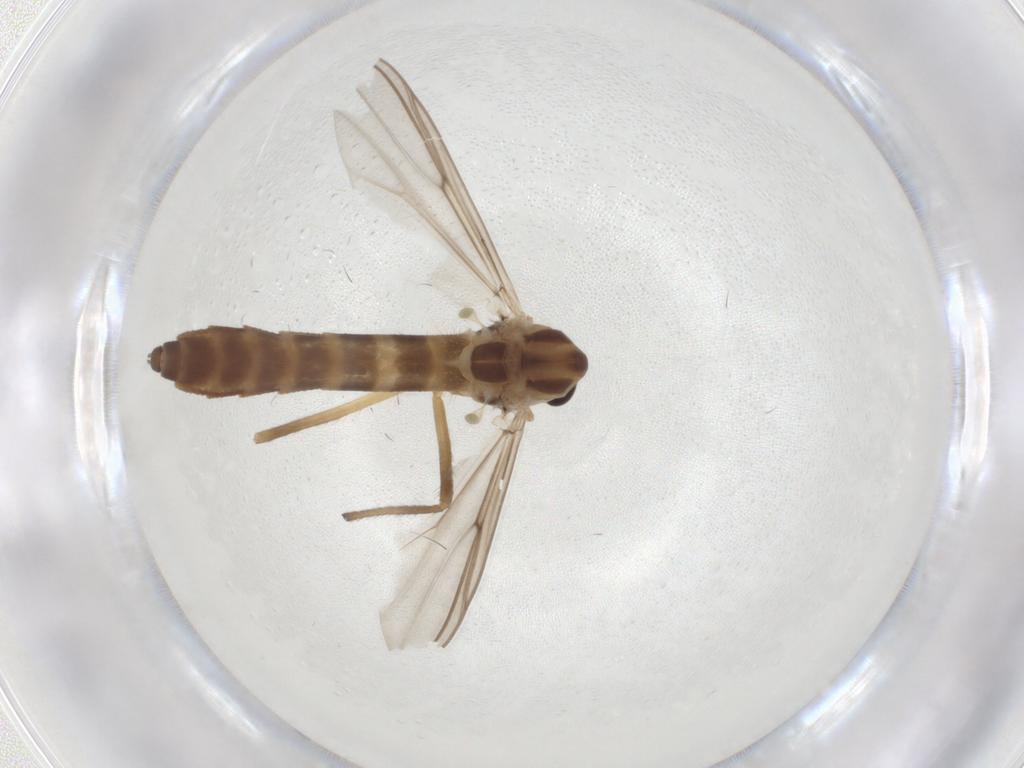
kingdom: Animalia
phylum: Arthropoda
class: Insecta
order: Diptera
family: Chironomidae
